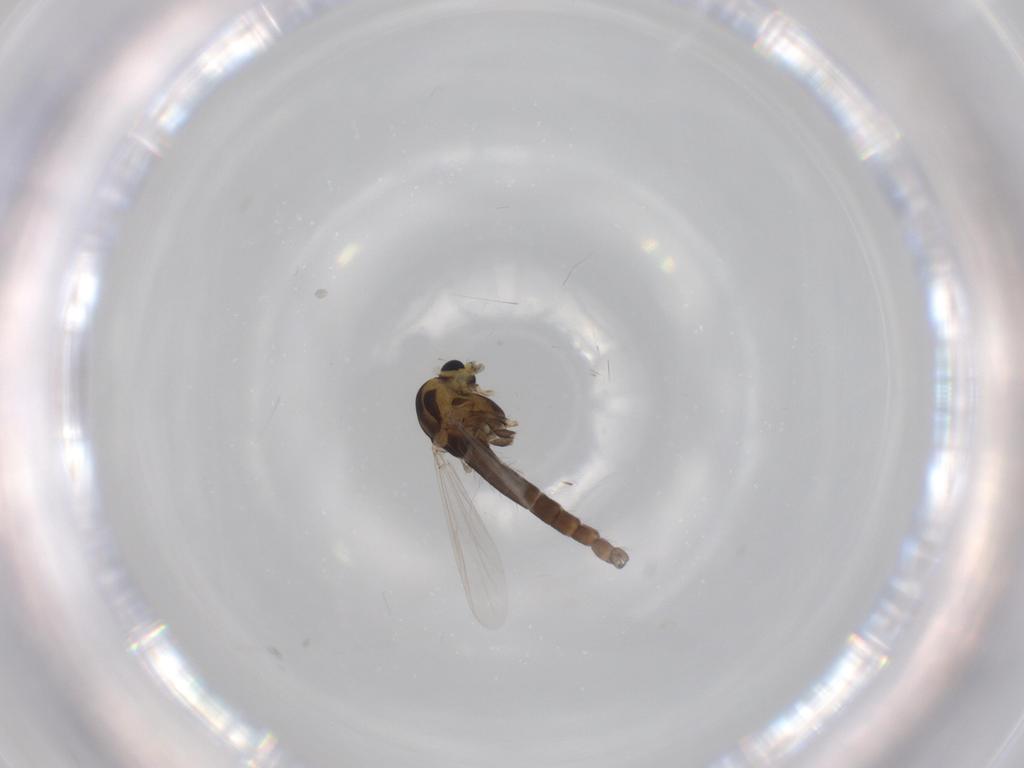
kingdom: Animalia
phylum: Arthropoda
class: Insecta
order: Diptera
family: Chironomidae
